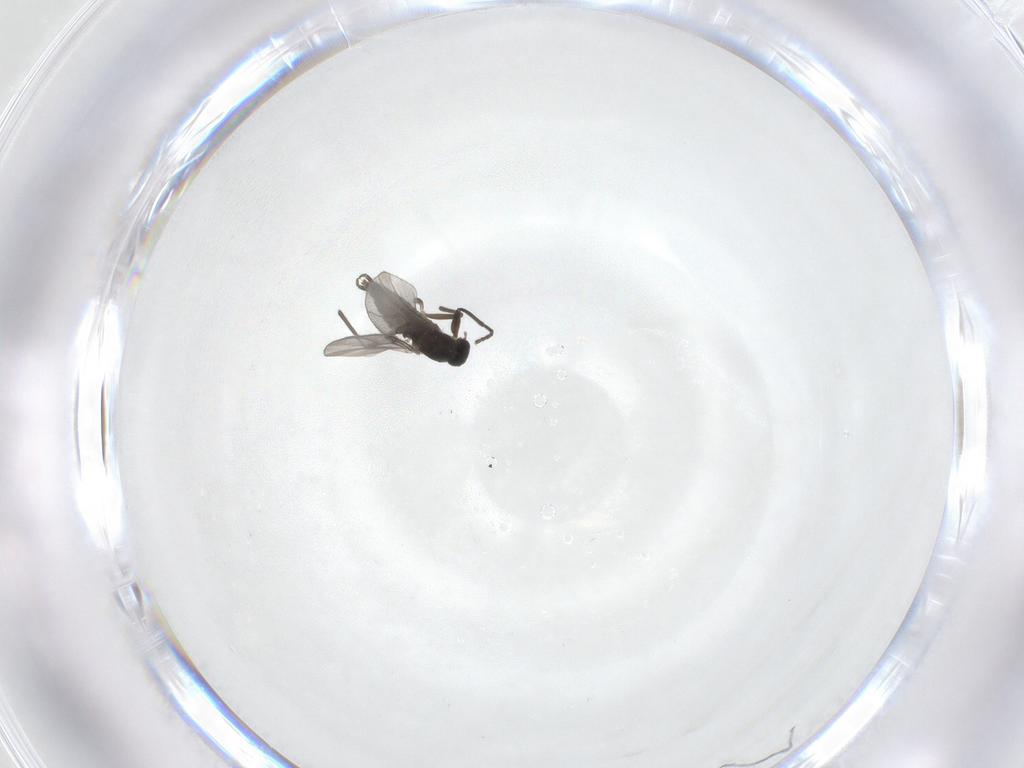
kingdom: Animalia
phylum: Arthropoda
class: Insecta
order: Diptera
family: Cecidomyiidae
